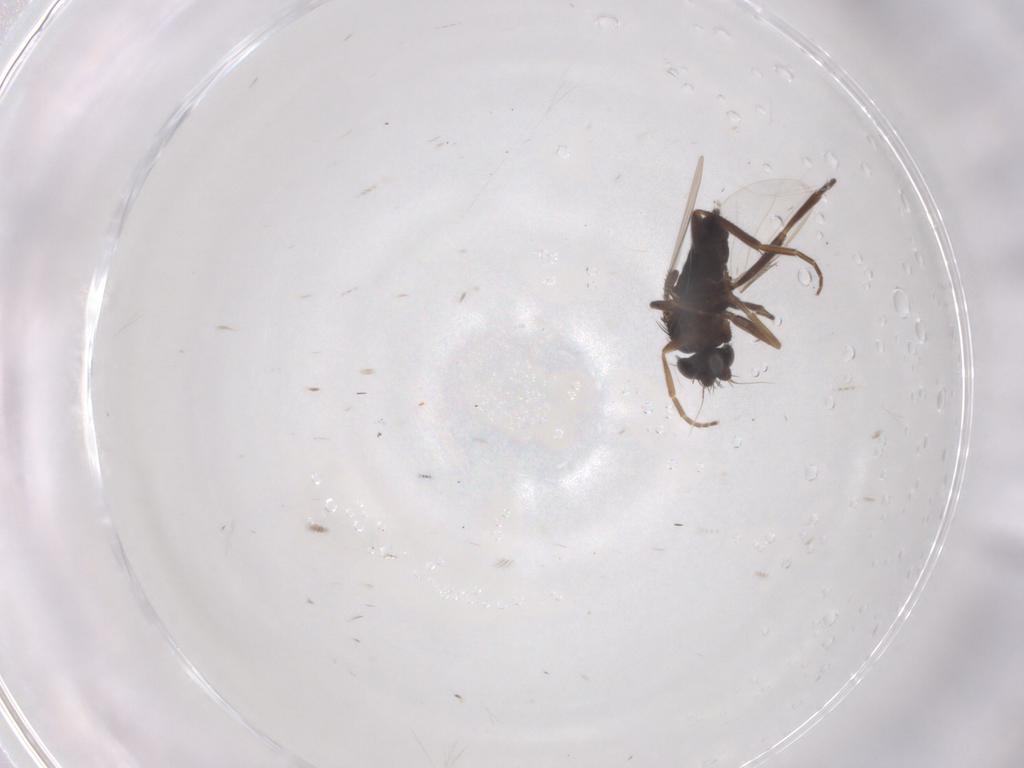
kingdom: Animalia
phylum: Arthropoda
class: Insecta
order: Diptera
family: Phoridae
